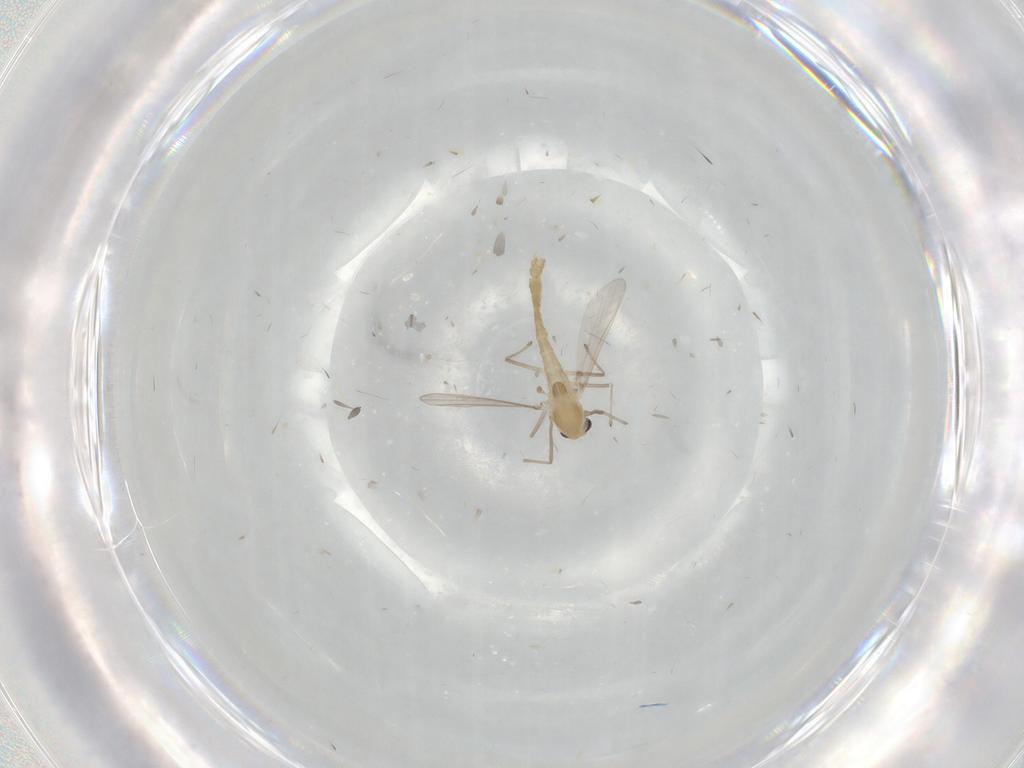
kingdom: Animalia
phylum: Arthropoda
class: Insecta
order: Diptera
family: Chironomidae
